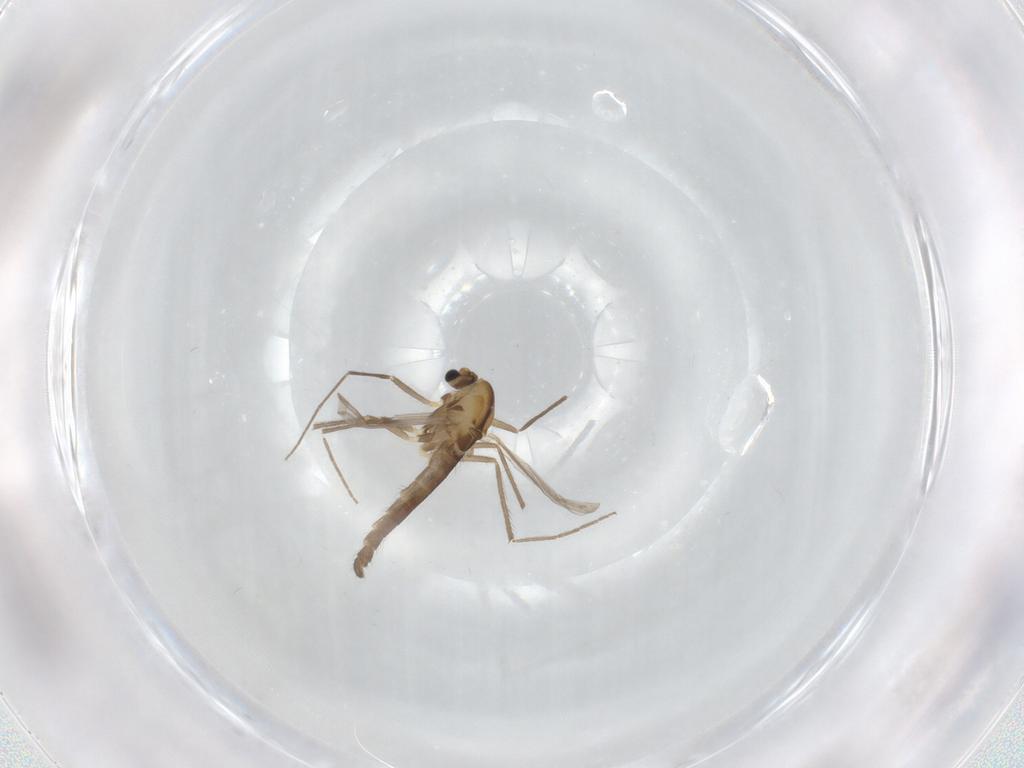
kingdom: Animalia
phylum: Arthropoda
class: Insecta
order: Diptera
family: Chironomidae
